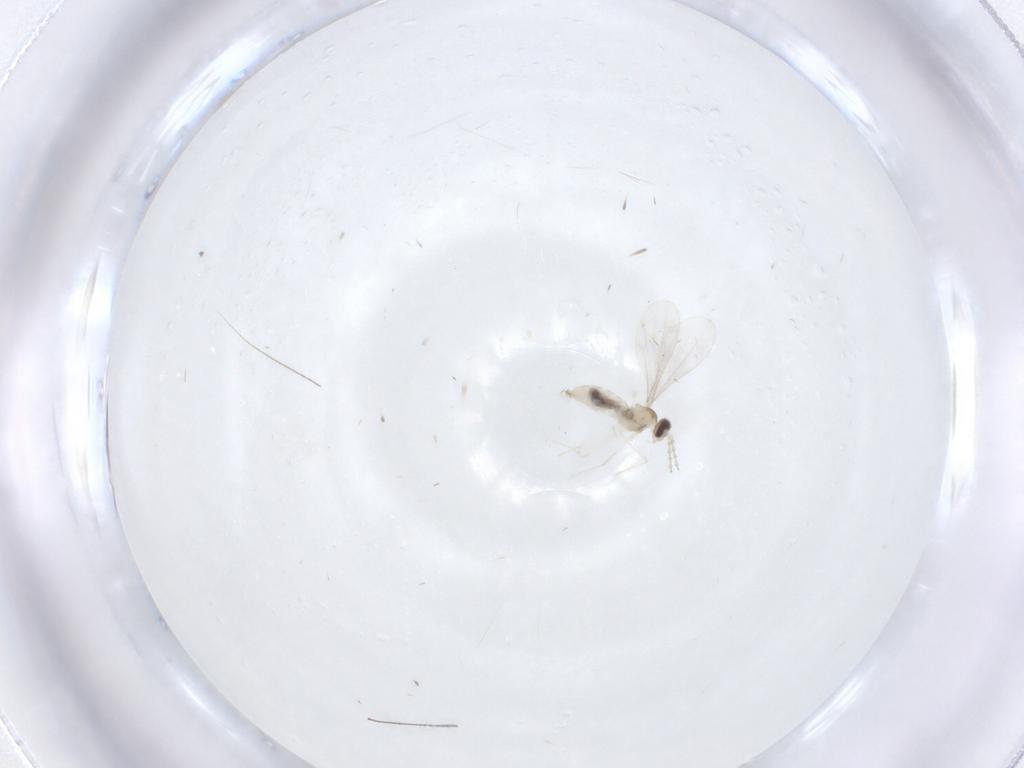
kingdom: Animalia
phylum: Arthropoda
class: Insecta
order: Diptera
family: Cecidomyiidae
